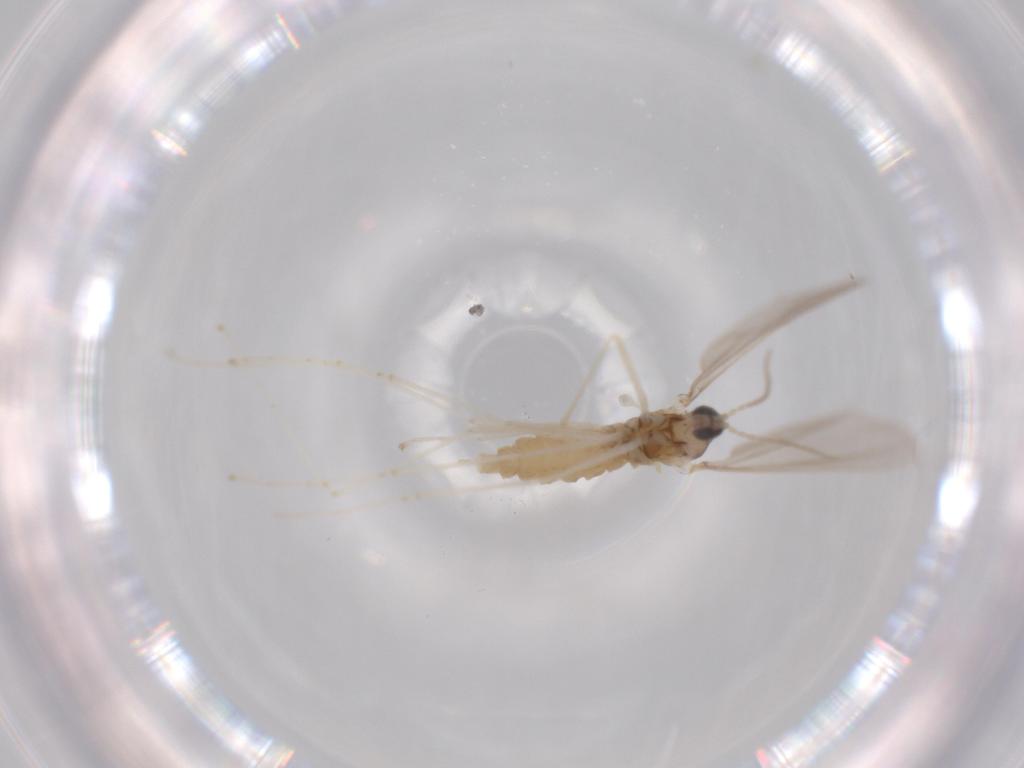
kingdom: Animalia
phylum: Arthropoda
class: Insecta
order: Diptera
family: Cecidomyiidae
